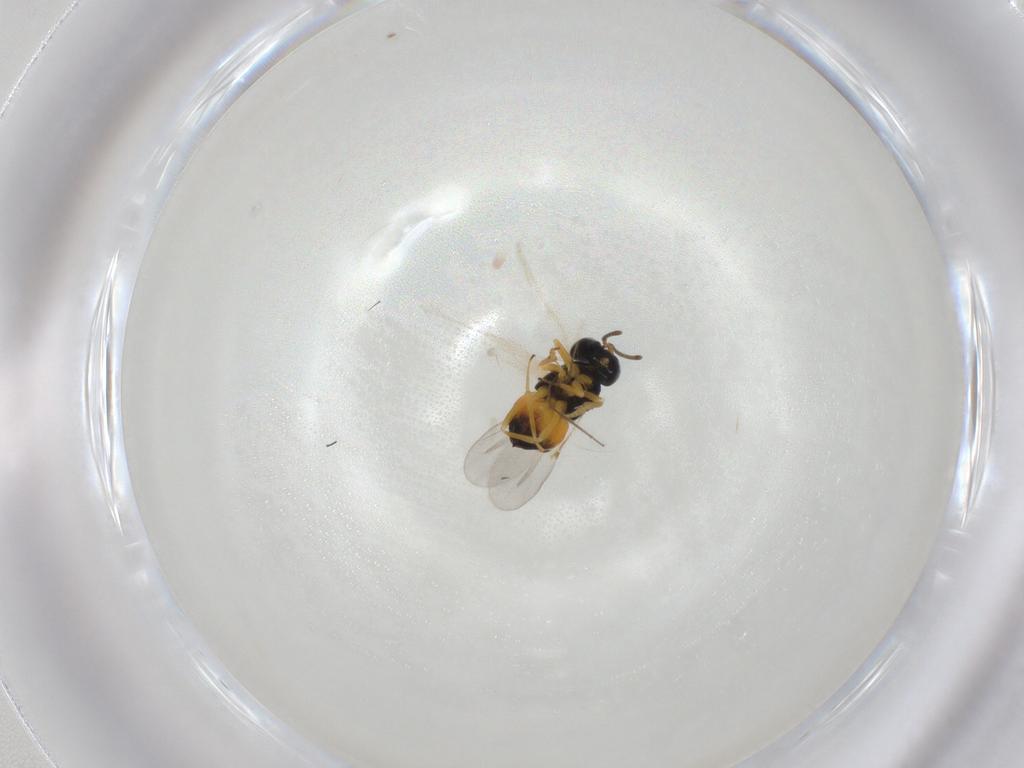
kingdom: Animalia
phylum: Arthropoda
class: Insecta
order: Hymenoptera
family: Encyrtidae
